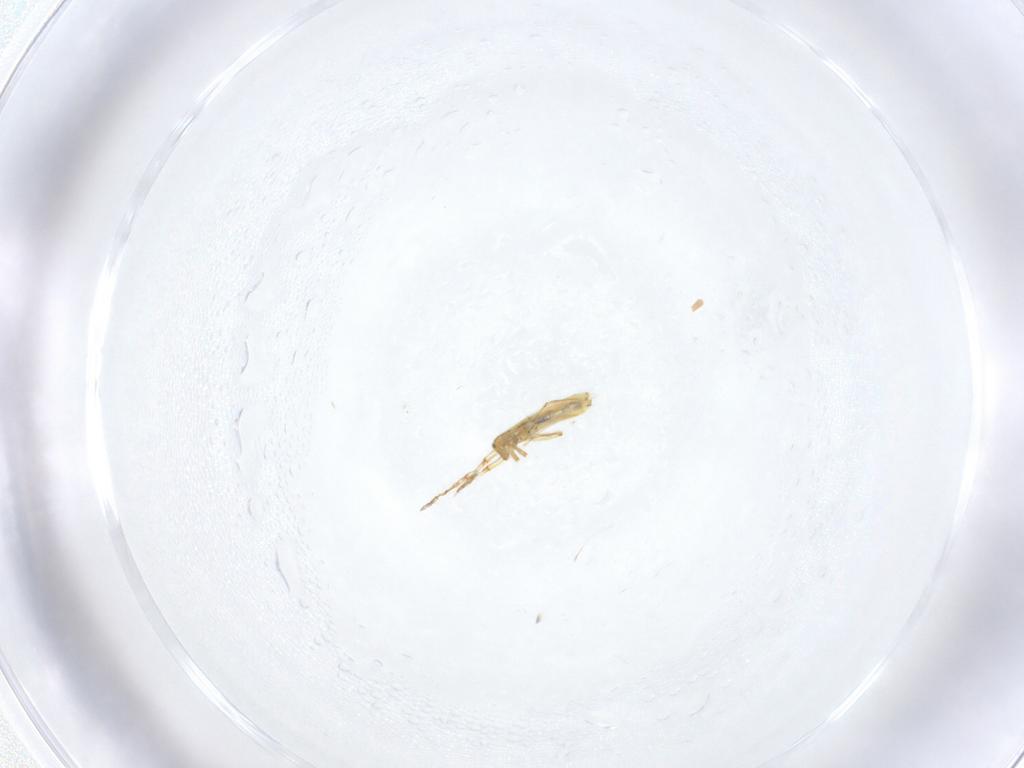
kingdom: Animalia
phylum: Arthropoda
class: Collembola
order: Entomobryomorpha
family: Entomobryidae
